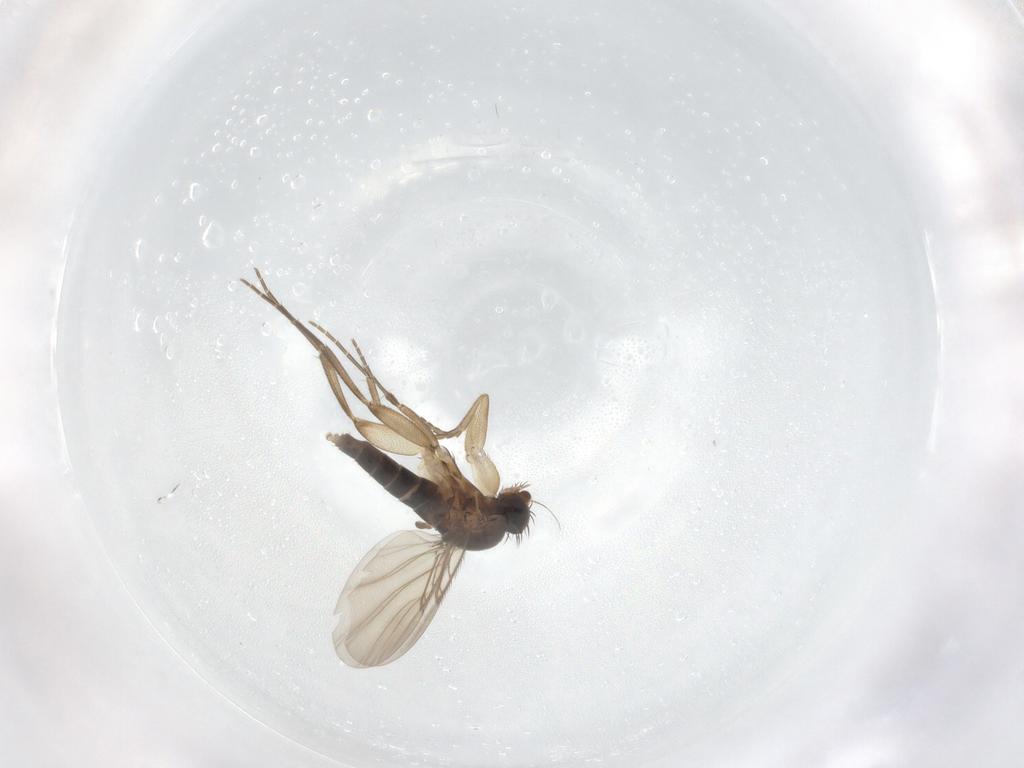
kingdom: Animalia
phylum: Arthropoda
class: Insecta
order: Diptera
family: Phoridae
